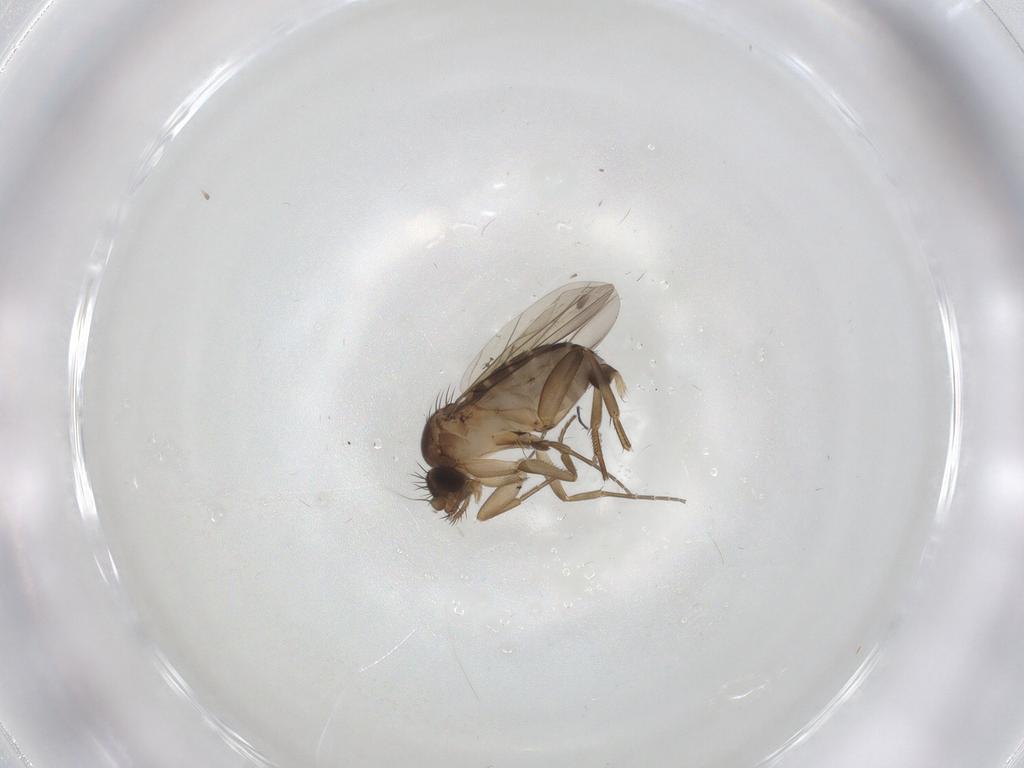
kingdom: Animalia
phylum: Arthropoda
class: Insecta
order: Diptera
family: Phoridae
